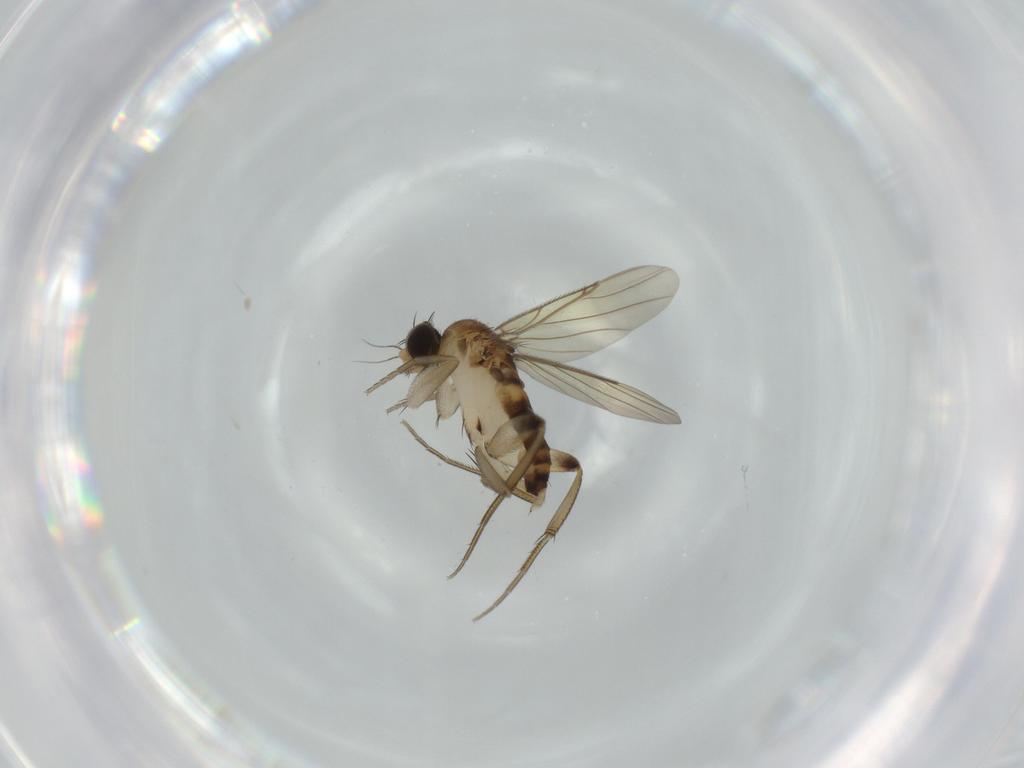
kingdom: Animalia
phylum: Arthropoda
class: Insecta
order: Diptera
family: Phoridae
